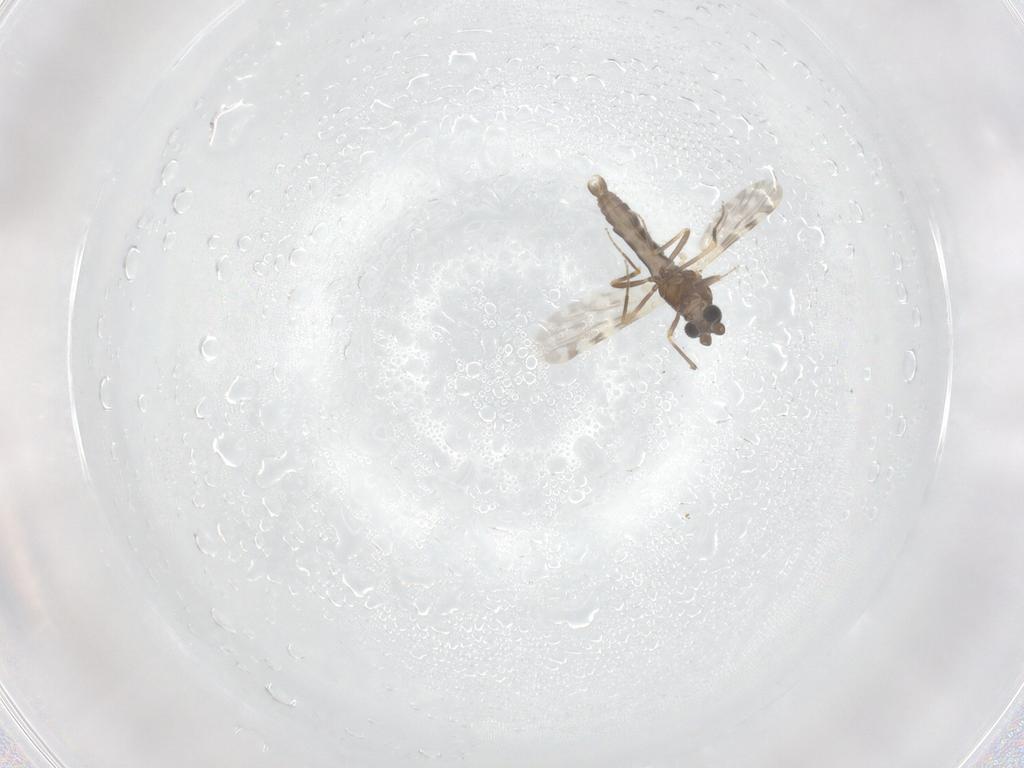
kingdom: Animalia
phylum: Arthropoda
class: Insecta
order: Diptera
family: Ceratopogonidae
